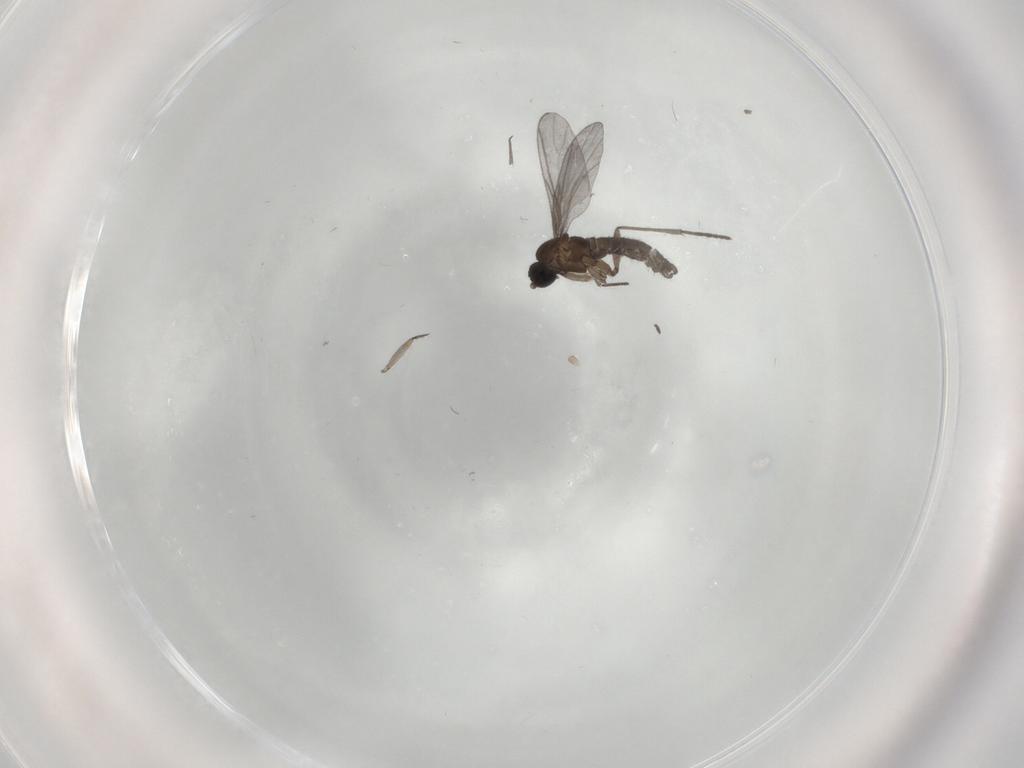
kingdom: Animalia
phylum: Arthropoda
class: Insecta
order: Diptera
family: Cecidomyiidae
